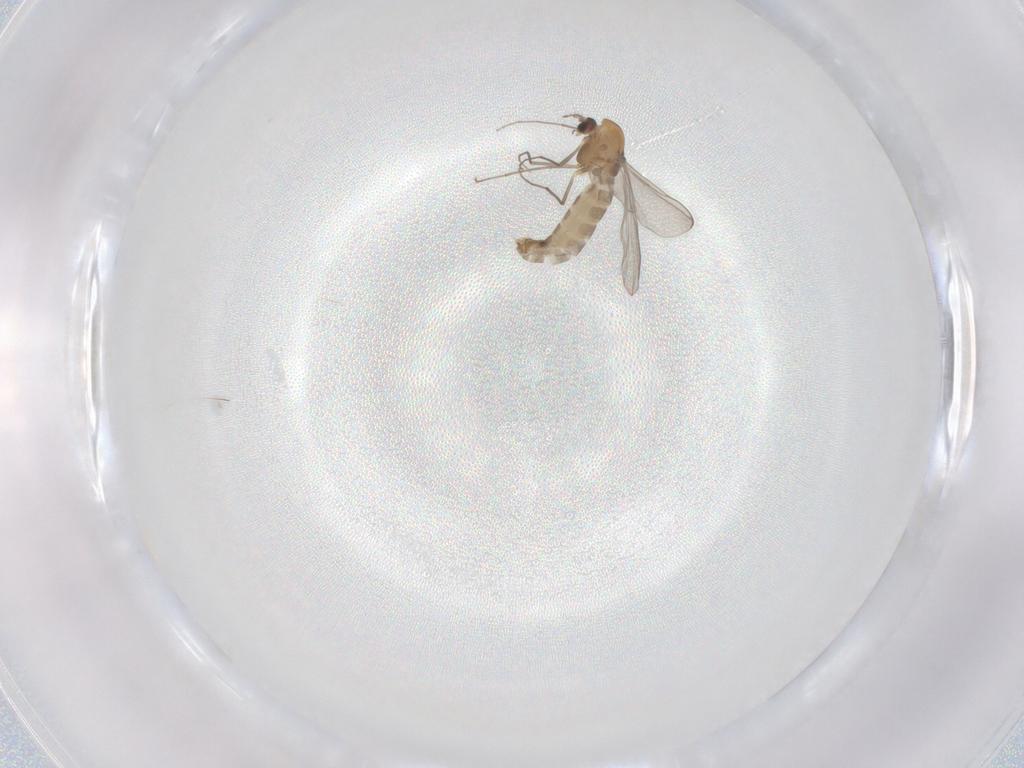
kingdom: Animalia
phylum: Arthropoda
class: Insecta
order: Diptera
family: Chironomidae
